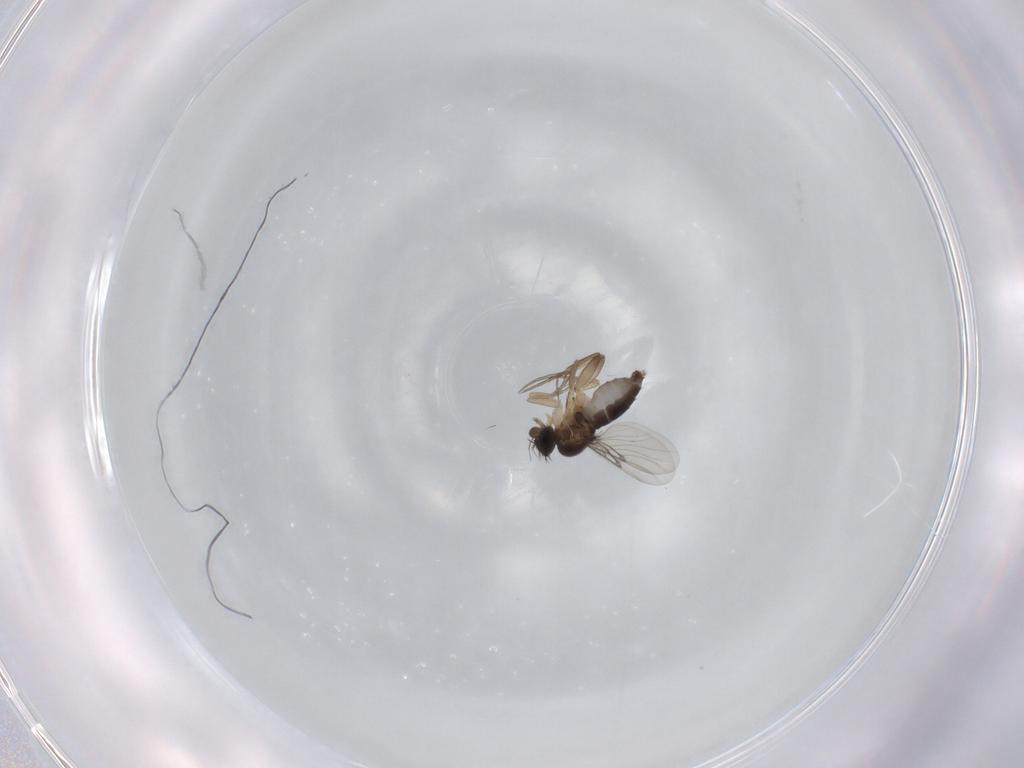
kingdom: Animalia
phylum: Arthropoda
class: Insecta
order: Diptera
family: Phoridae
